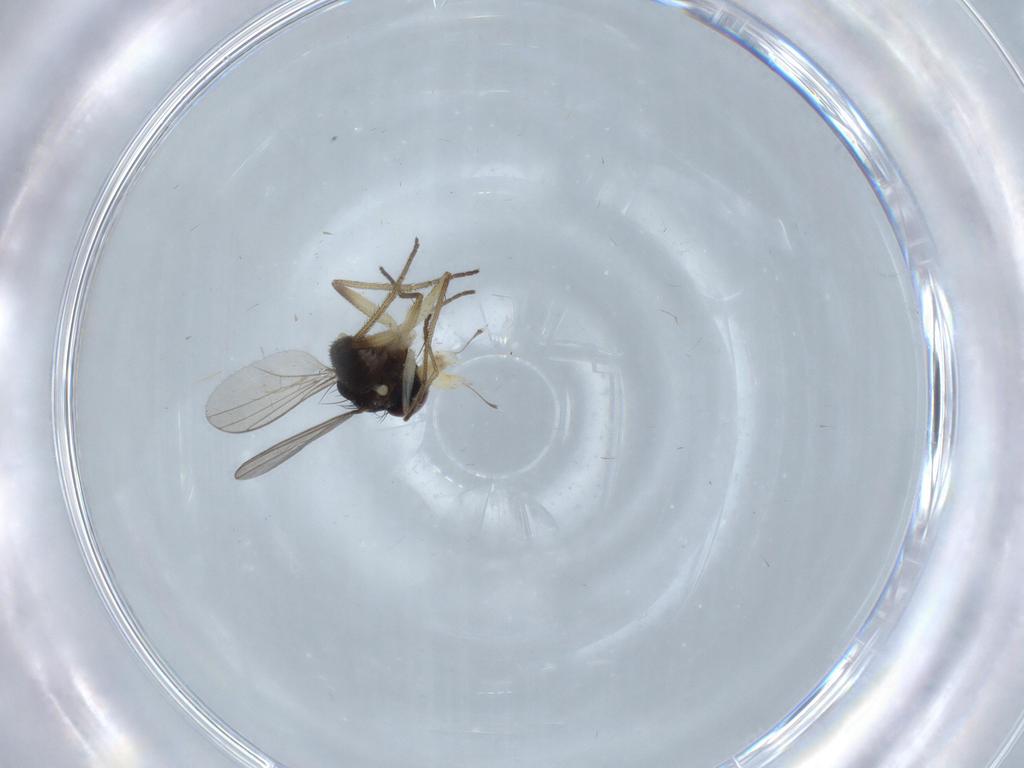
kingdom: Animalia
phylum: Arthropoda
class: Insecta
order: Diptera
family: Dolichopodidae
